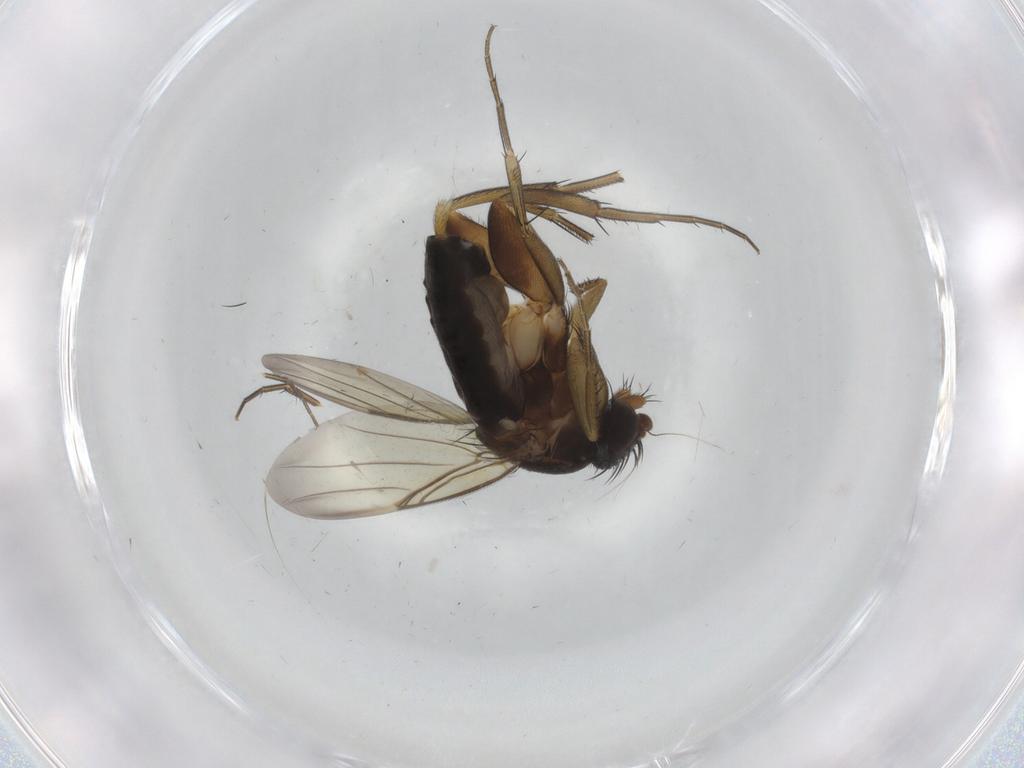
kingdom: Animalia
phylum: Arthropoda
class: Insecta
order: Diptera
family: Phoridae
